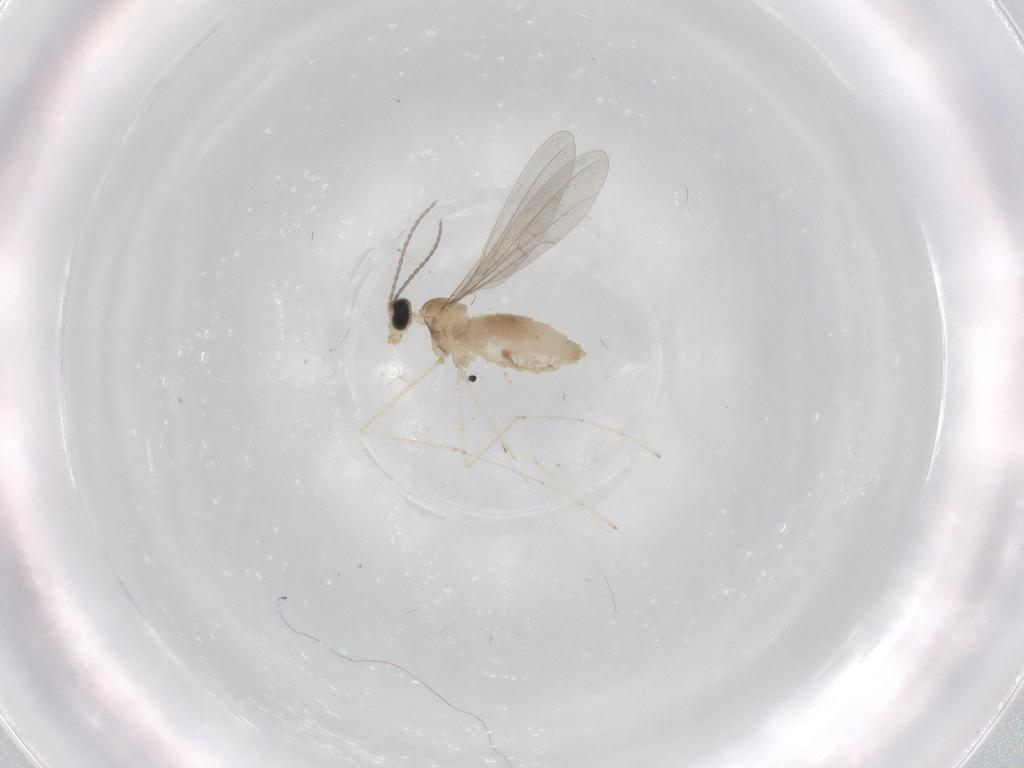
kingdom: Animalia
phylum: Arthropoda
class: Insecta
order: Diptera
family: Cecidomyiidae
